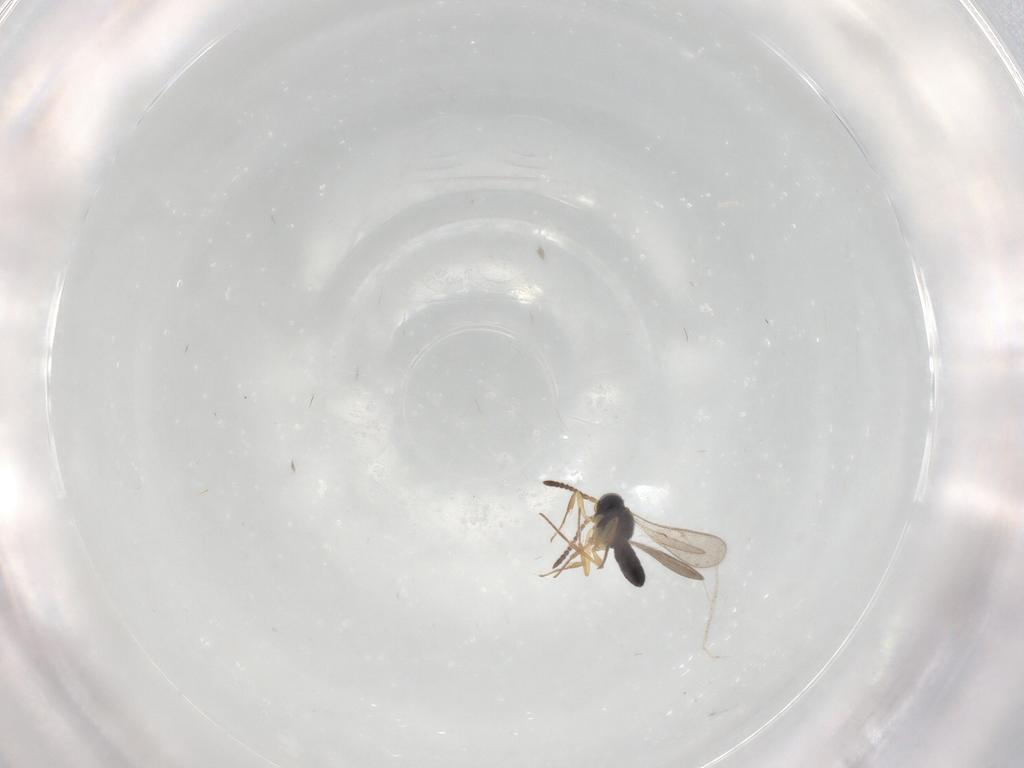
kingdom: Animalia
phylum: Arthropoda
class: Insecta
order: Hymenoptera
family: Scelionidae
